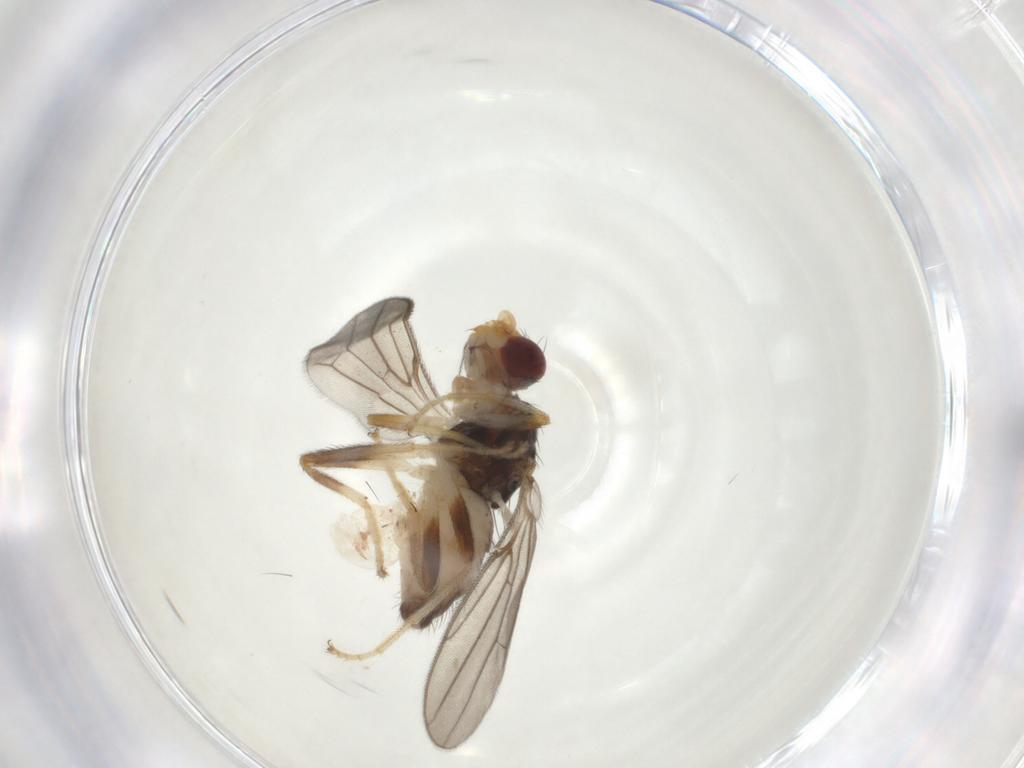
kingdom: Animalia
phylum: Arthropoda
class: Insecta
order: Diptera
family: Chloropidae
